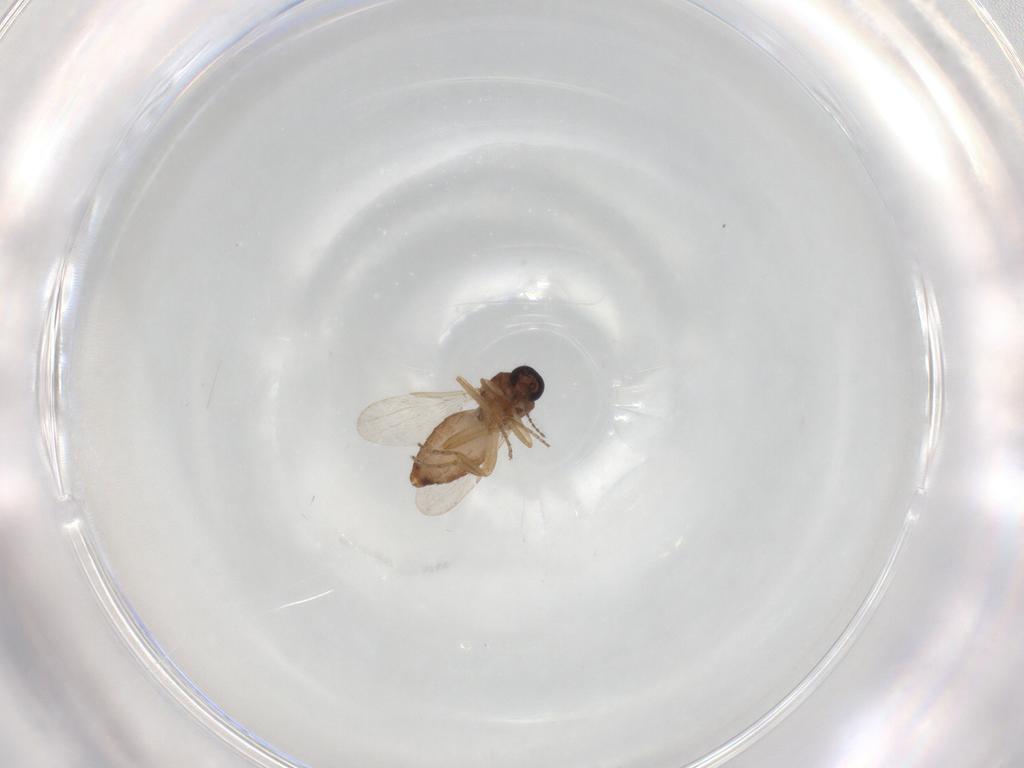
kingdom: Animalia
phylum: Arthropoda
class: Insecta
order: Diptera
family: Ceratopogonidae
